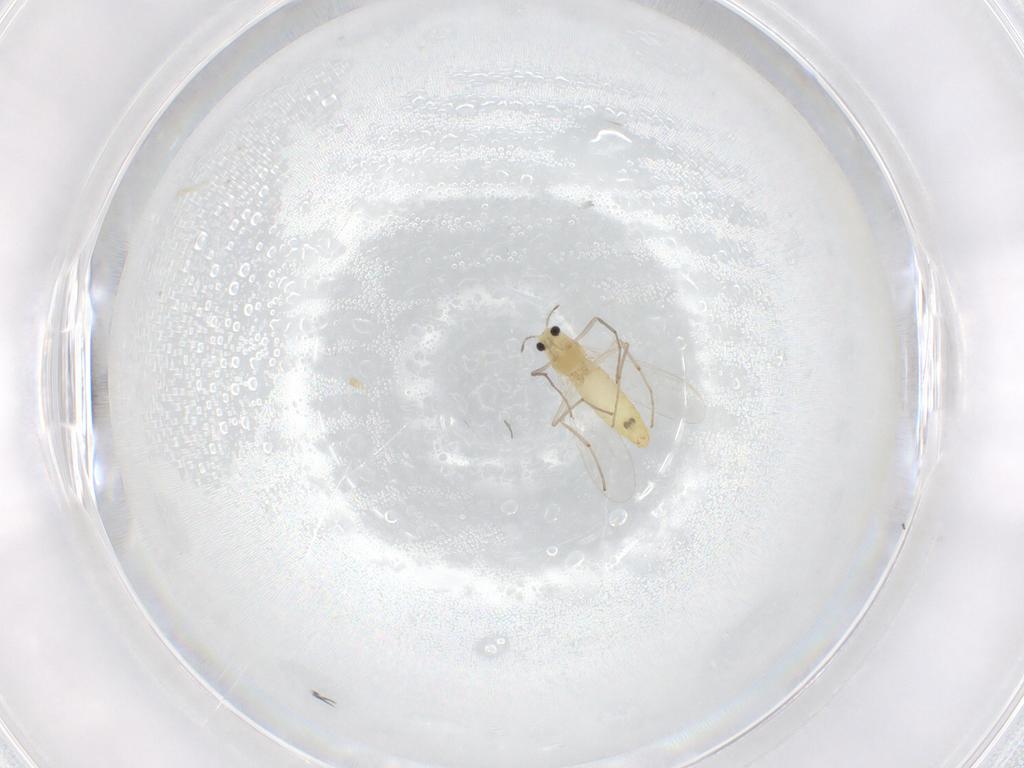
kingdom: Animalia
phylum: Arthropoda
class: Insecta
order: Diptera
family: Chironomidae
